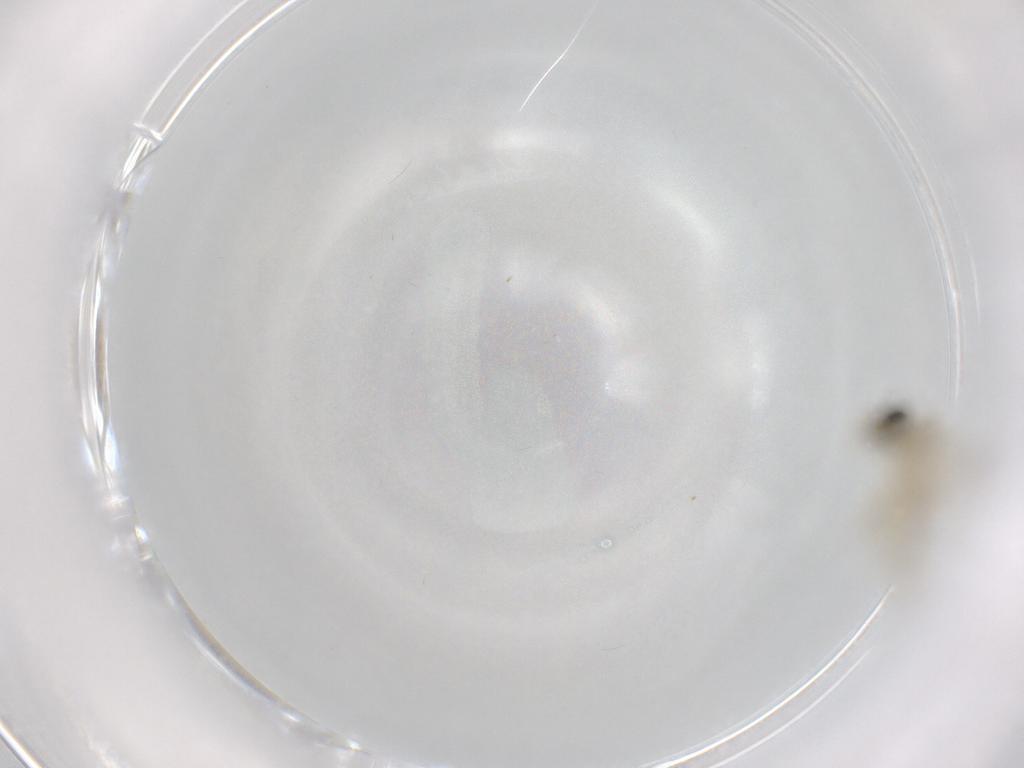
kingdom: Animalia
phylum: Arthropoda
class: Insecta
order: Diptera
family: Chironomidae
